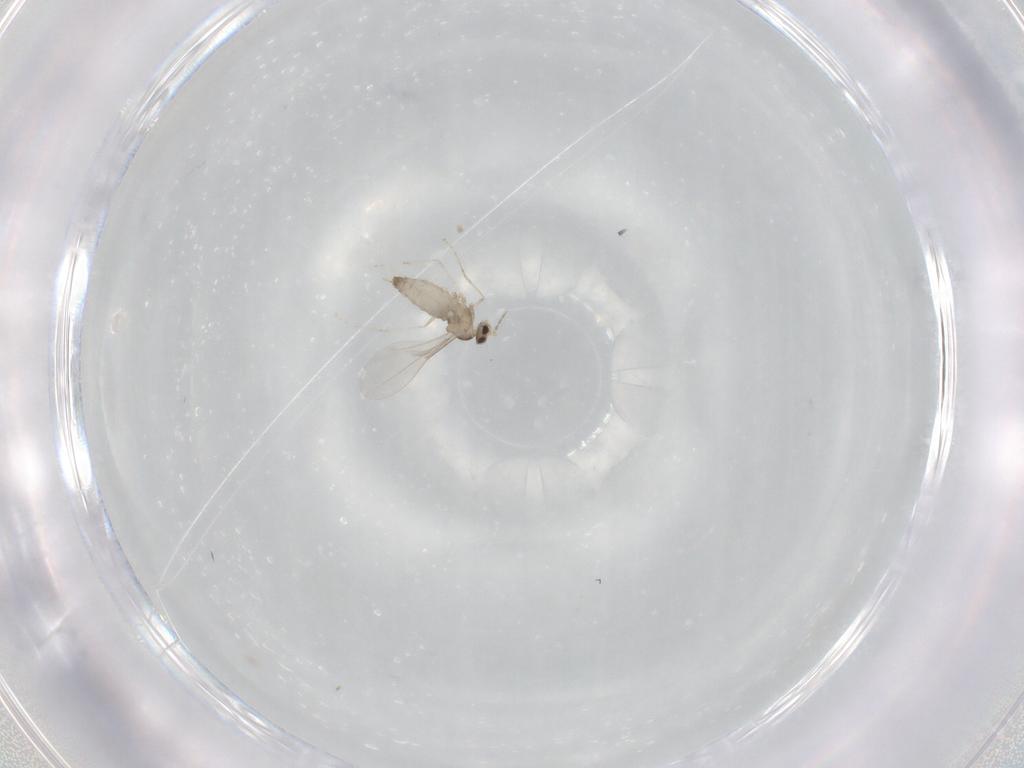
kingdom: Animalia
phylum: Arthropoda
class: Insecta
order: Diptera
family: Cecidomyiidae
